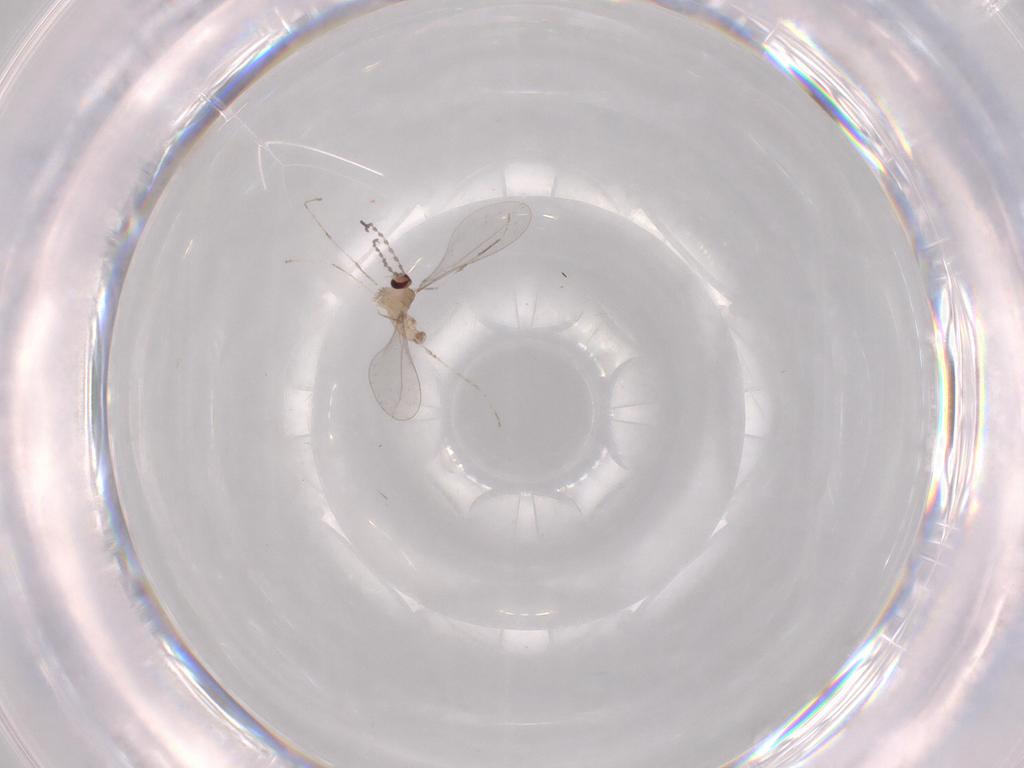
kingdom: Animalia
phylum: Arthropoda
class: Insecta
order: Diptera
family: Cecidomyiidae
